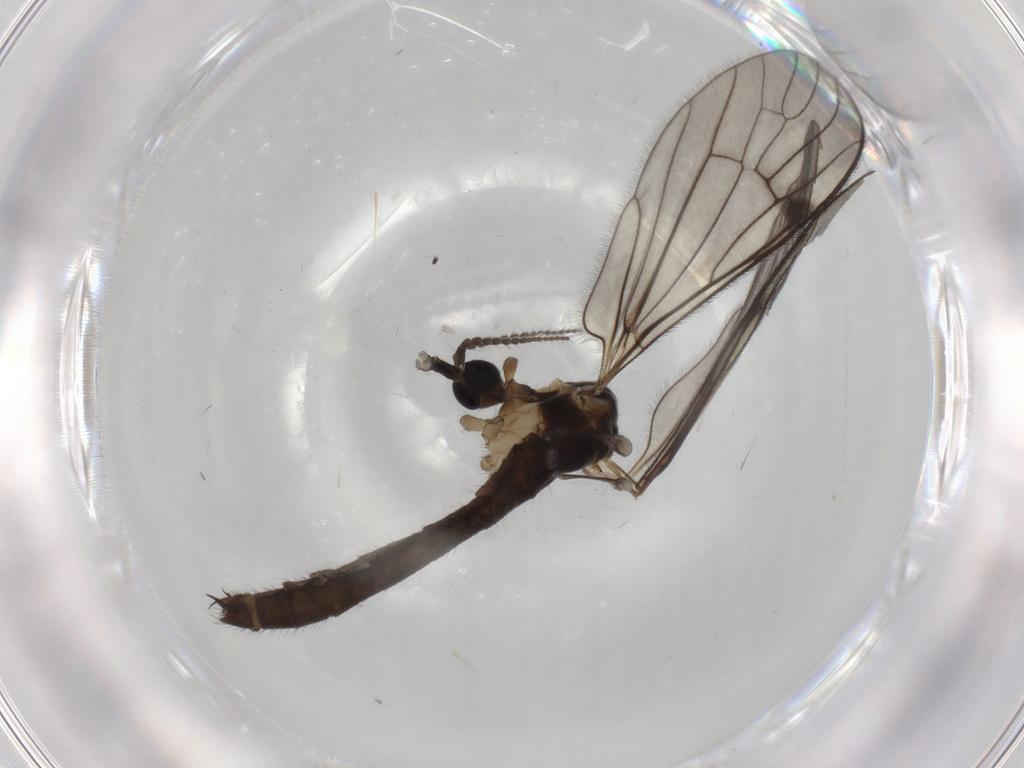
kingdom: Animalia
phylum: Arthropoda
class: Insecta
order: Diptera
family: Limoniidae
